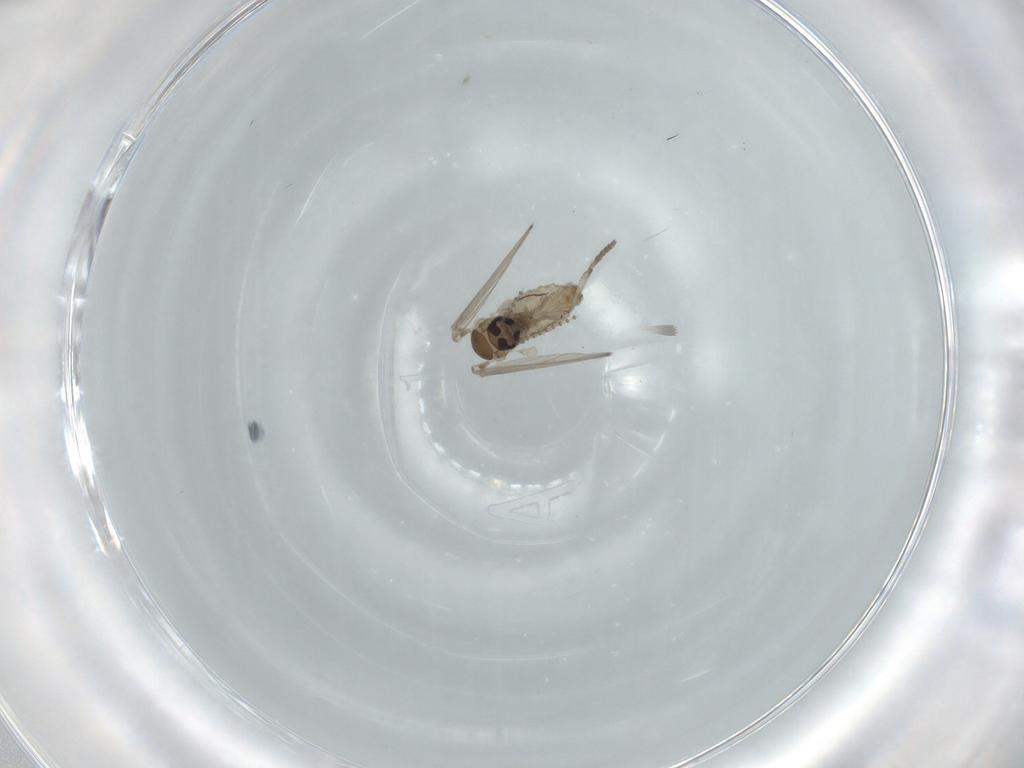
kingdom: Animalia
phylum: Arthropoda
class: Insecta
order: Diptera
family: Psychodidae
